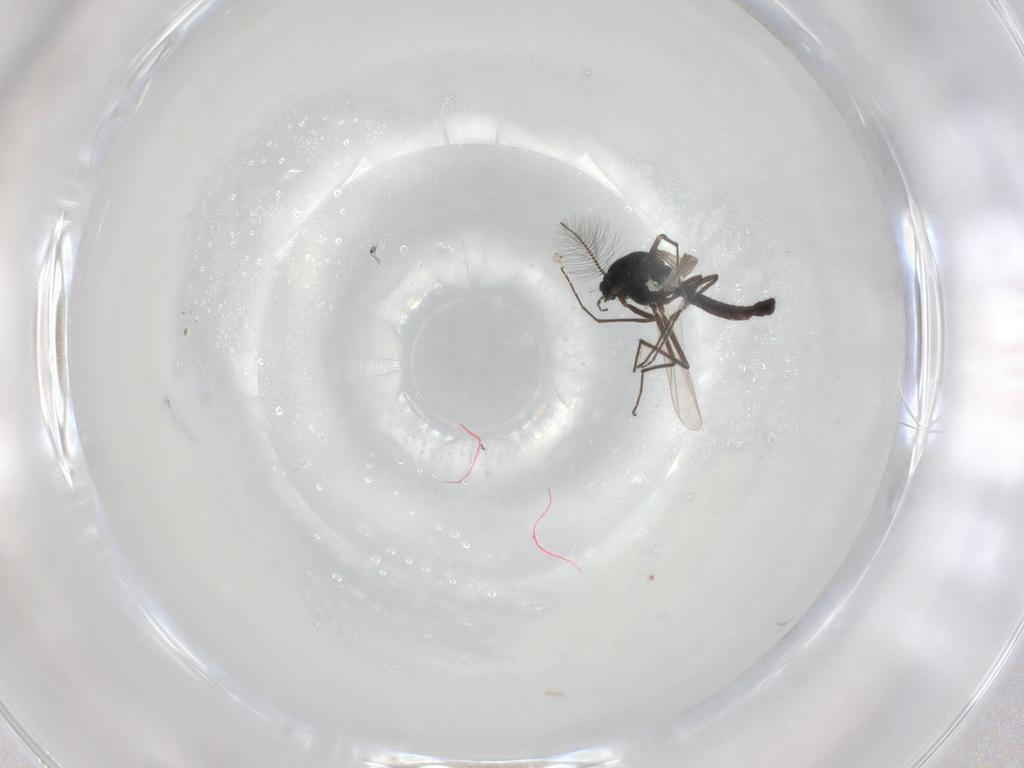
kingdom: Animalia
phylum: Arthropoda
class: Insecta
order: Diptera
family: Chironomidae
